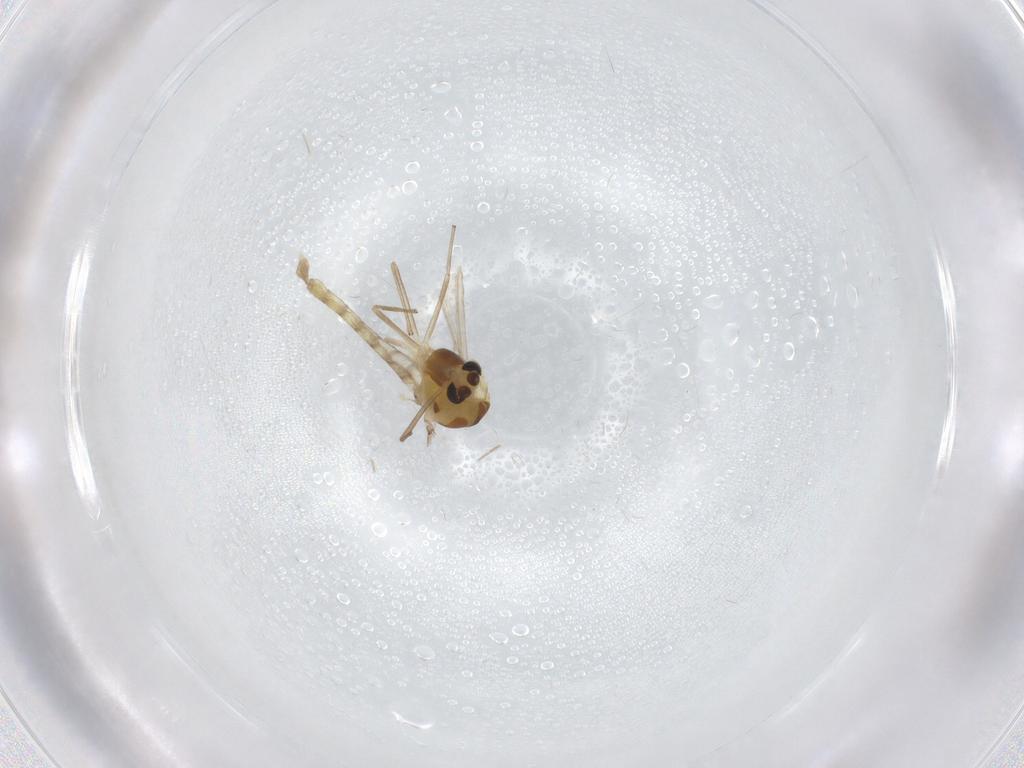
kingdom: Animalia
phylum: Arthropoda
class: Insecta
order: Diptera
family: Chironomidae
